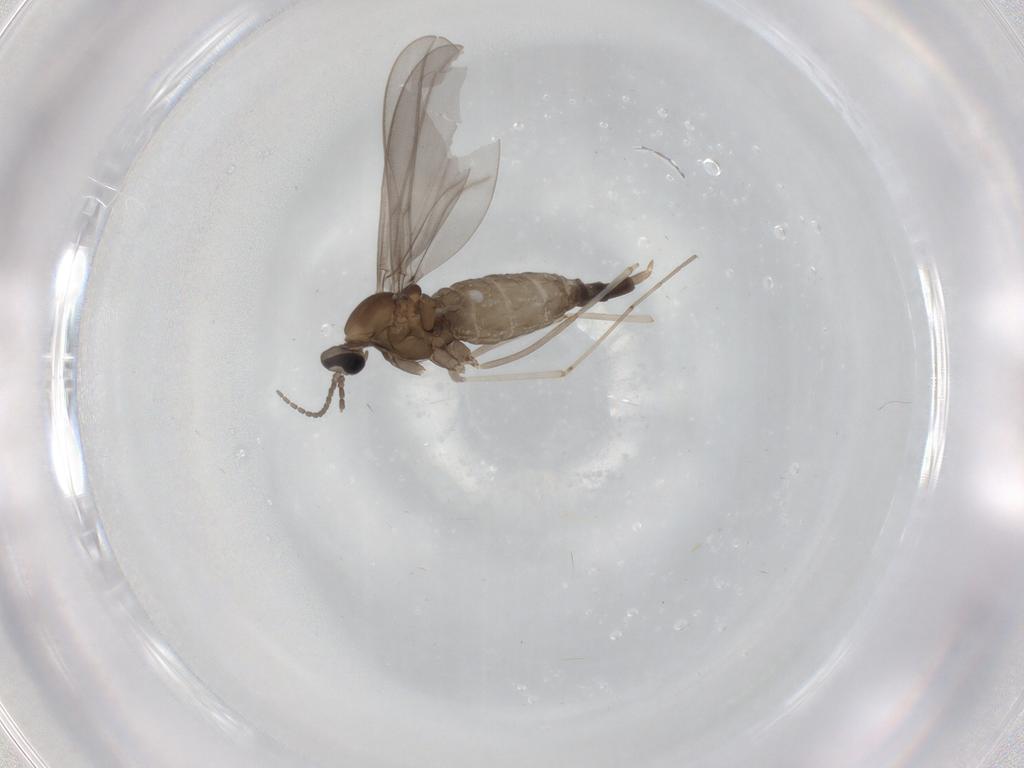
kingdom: Animalia
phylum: Arthropoda
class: Insecta
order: Diptera
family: Cecidomyiidae
